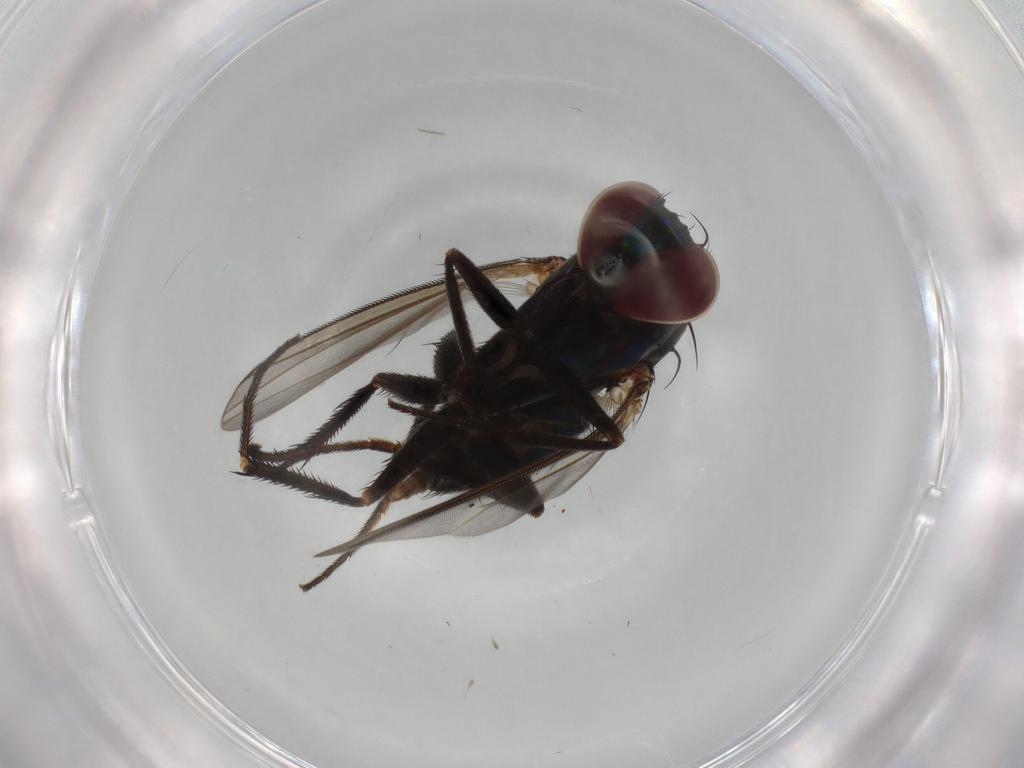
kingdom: Animalia
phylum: Arthropoda
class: Insecta
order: Diptera
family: Dolichopodidae
